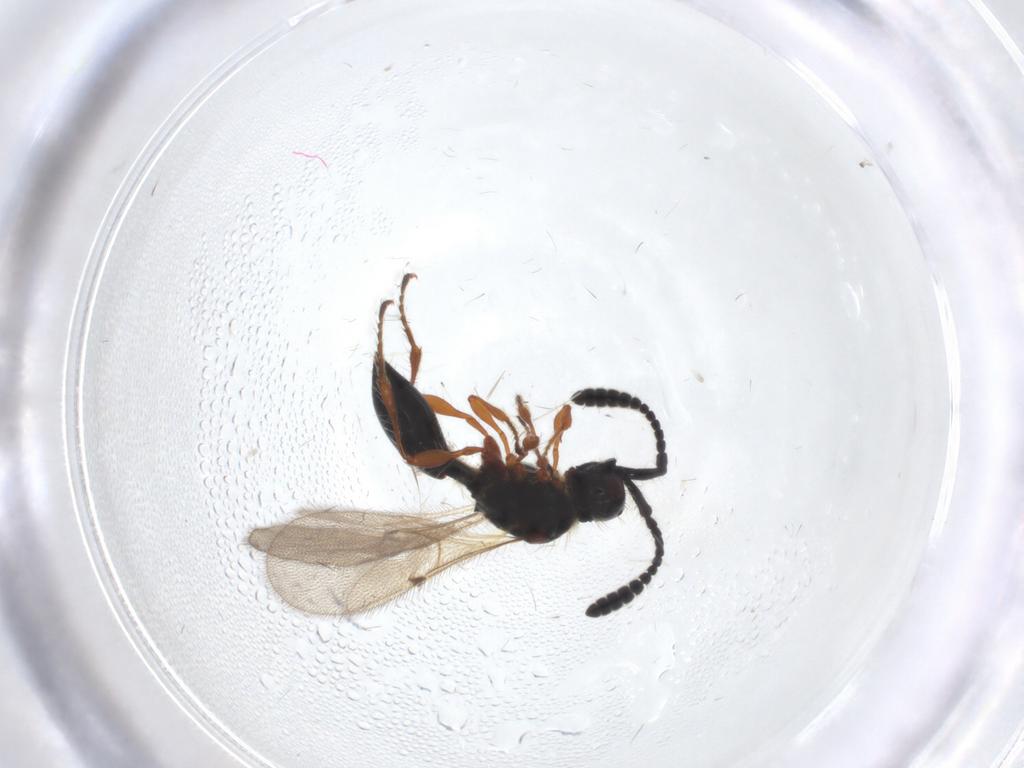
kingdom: Animalia
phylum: Arthropoda
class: Insecta
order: Hymenoptera
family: Diapriidae
